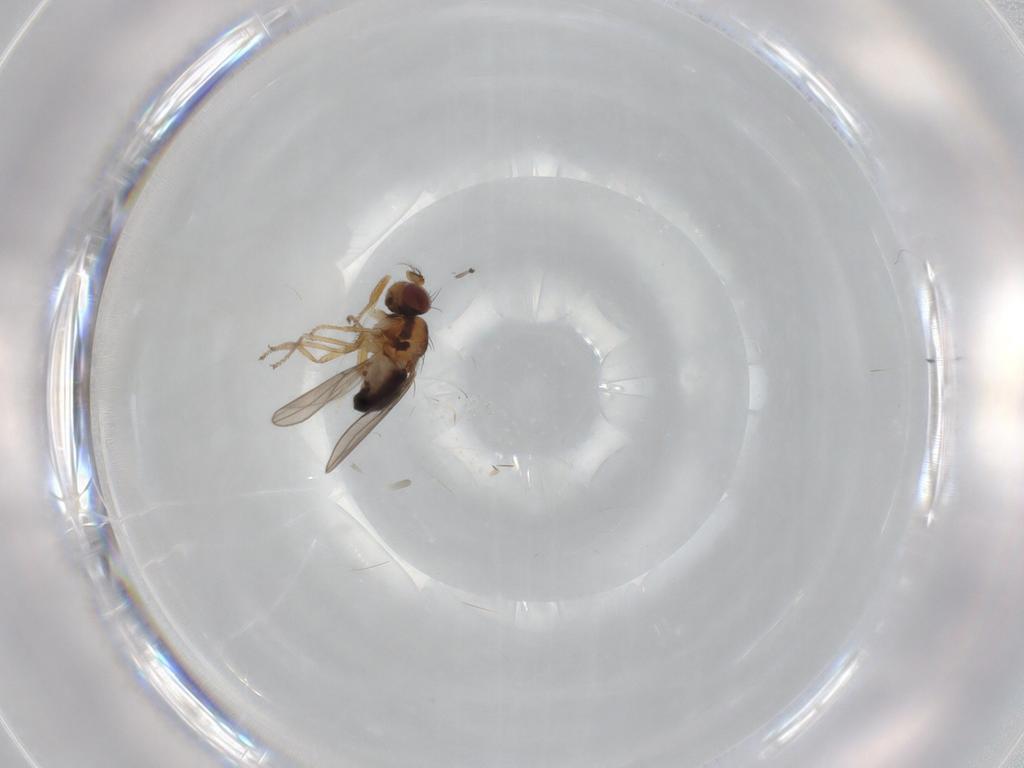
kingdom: Animalia
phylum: Arthropoda
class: Insecta
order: Diptera
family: Ephydridae
